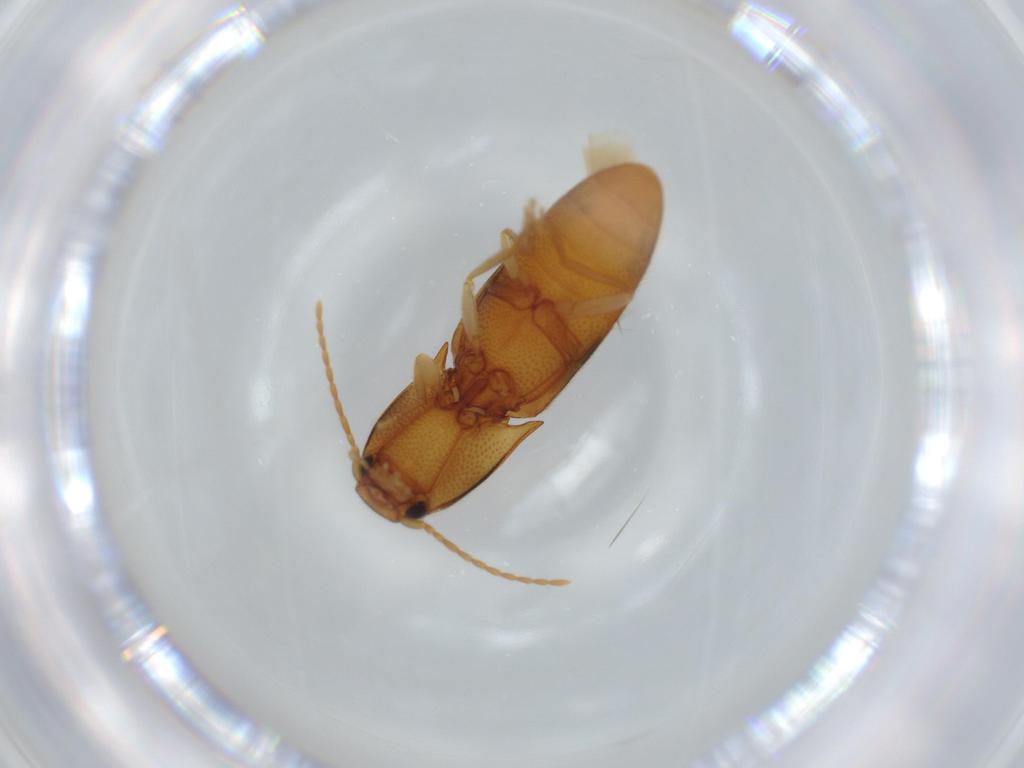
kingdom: Animalia
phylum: Arthropoda
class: Insecta
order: Coleoptera
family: Elateridae
